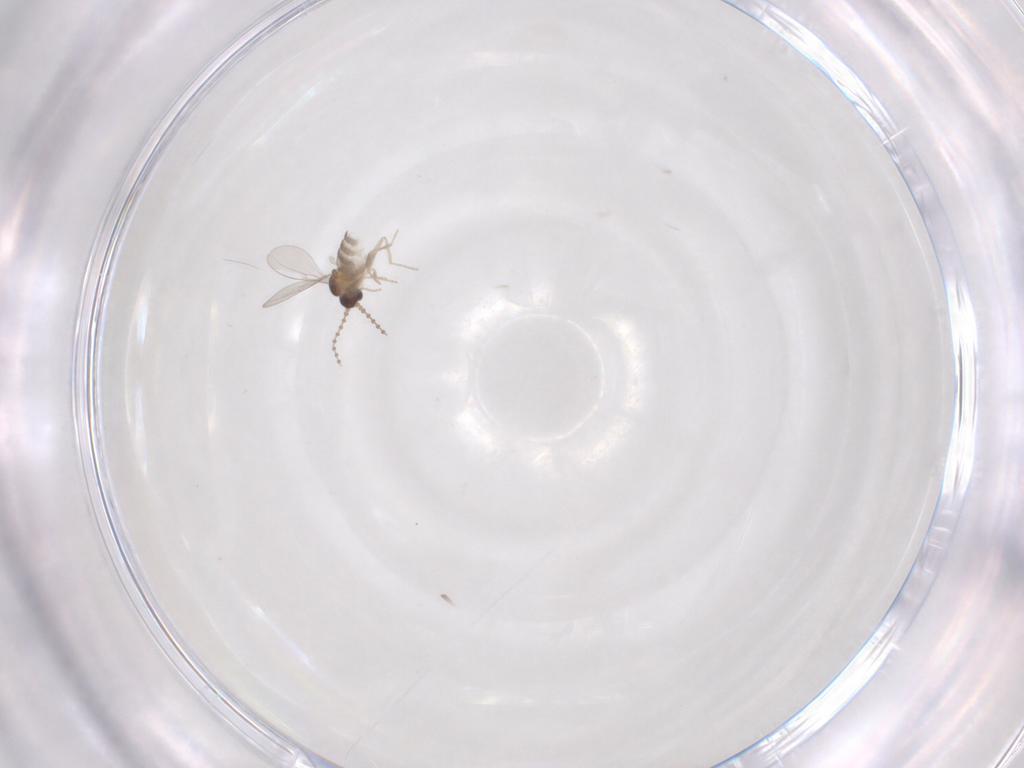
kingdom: Animalia
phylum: Arthropoda
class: Insecta
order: Diptera
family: Cecidomyiidae
